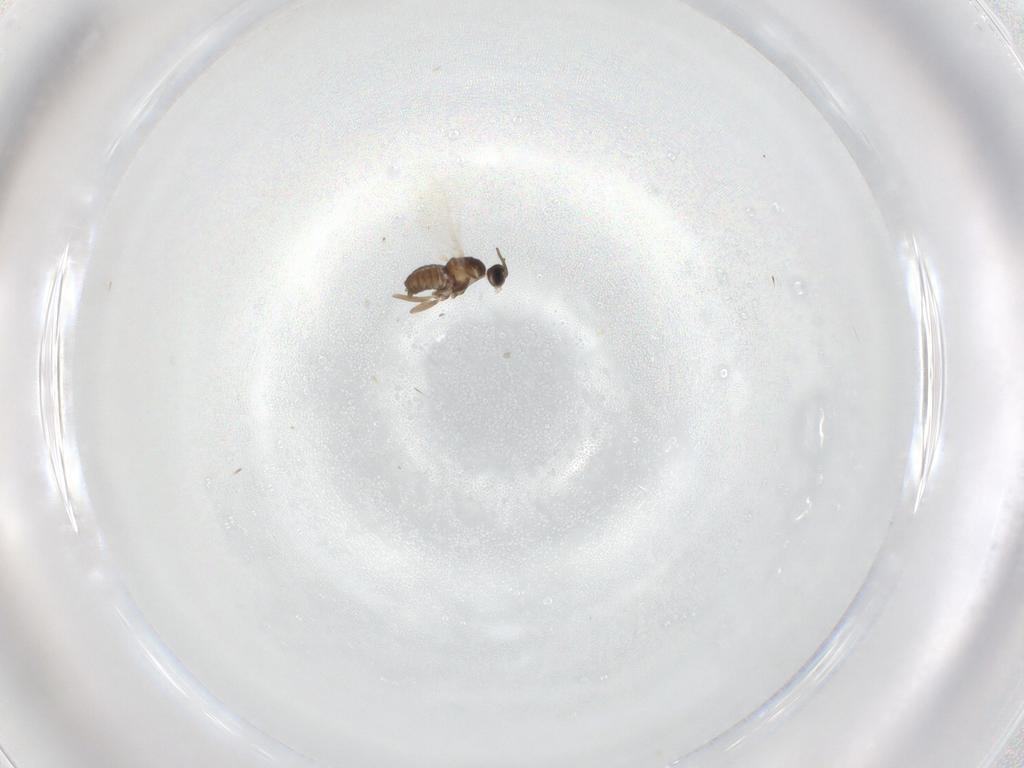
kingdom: Animalia
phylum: Arthropoda
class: Insecta
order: Diptera
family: Cecidomyiidae
